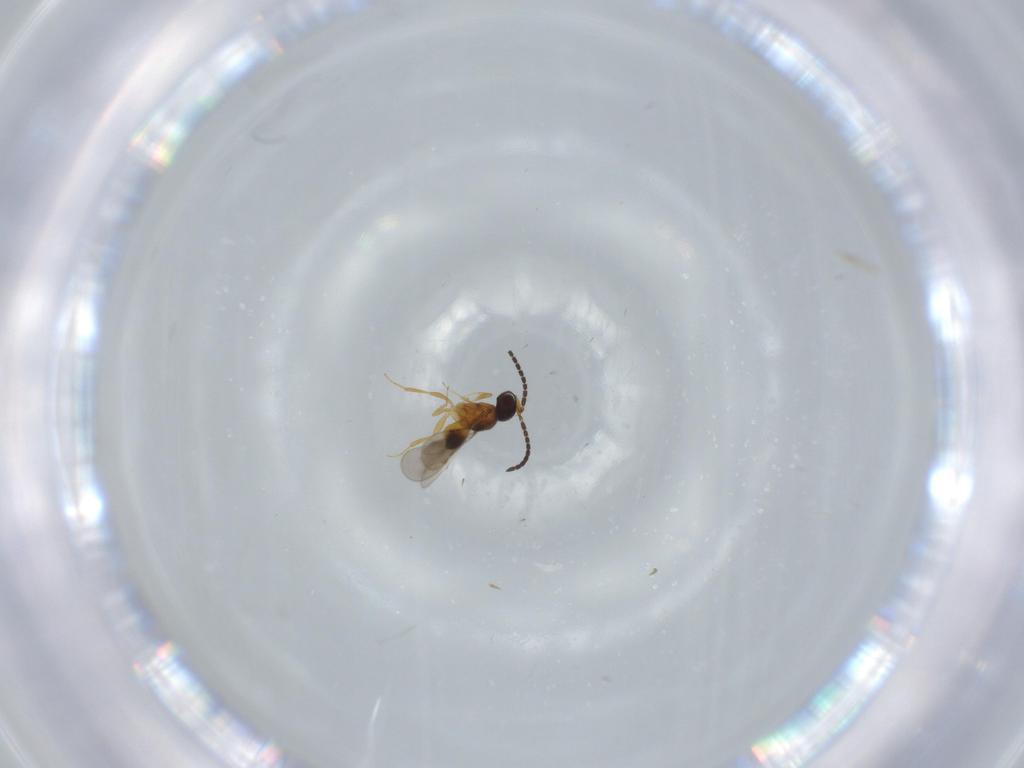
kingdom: Animalia
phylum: Arthropoda
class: Insecta
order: Hymenoptera
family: Ceraphronidae
